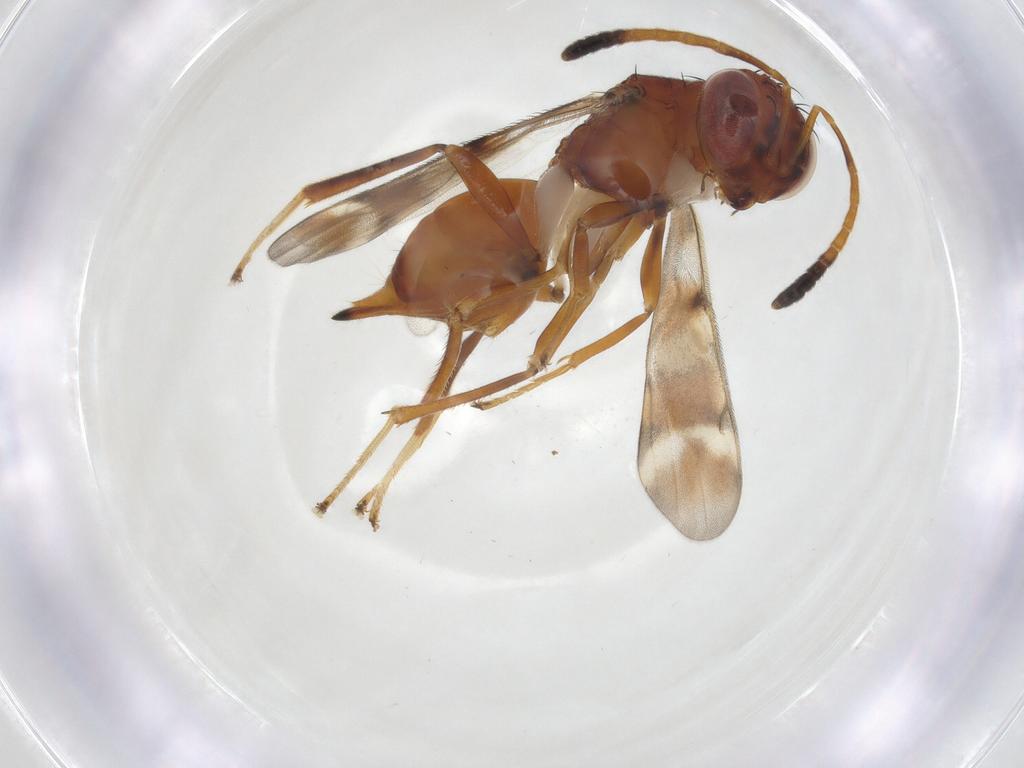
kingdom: Animalia
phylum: Arthropoda
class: Insecta
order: Hymenoptera
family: Diparidae
